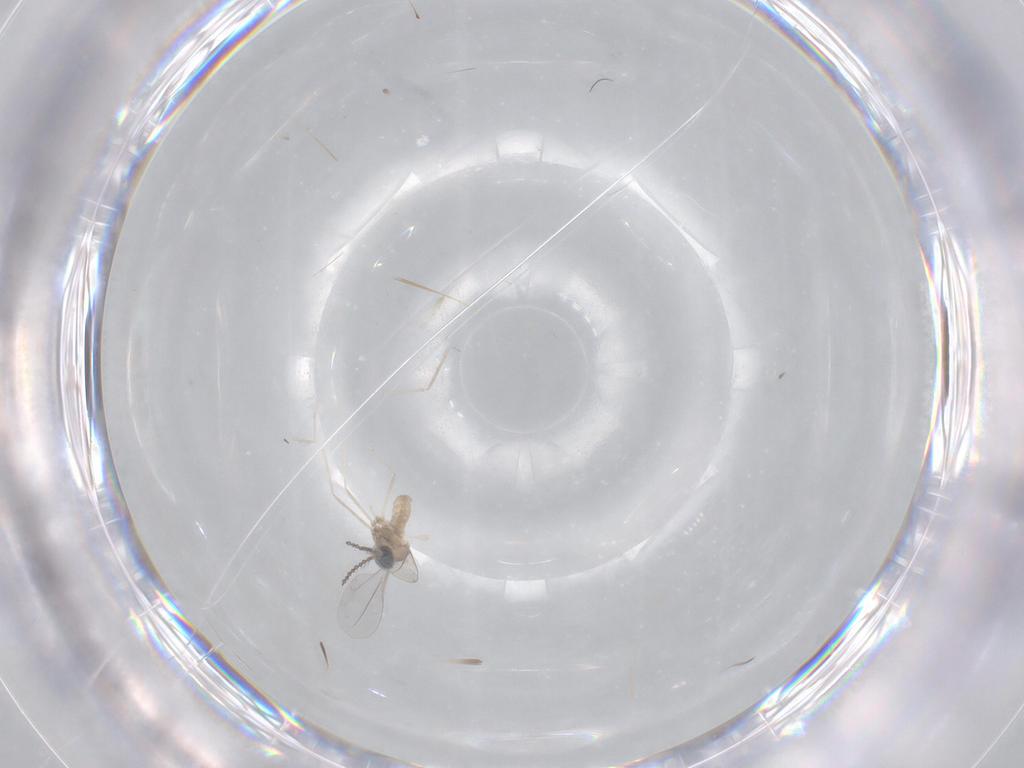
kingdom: Animalia
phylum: Arthropoda
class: Insecta
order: Diptera
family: Cecidomyiidae
